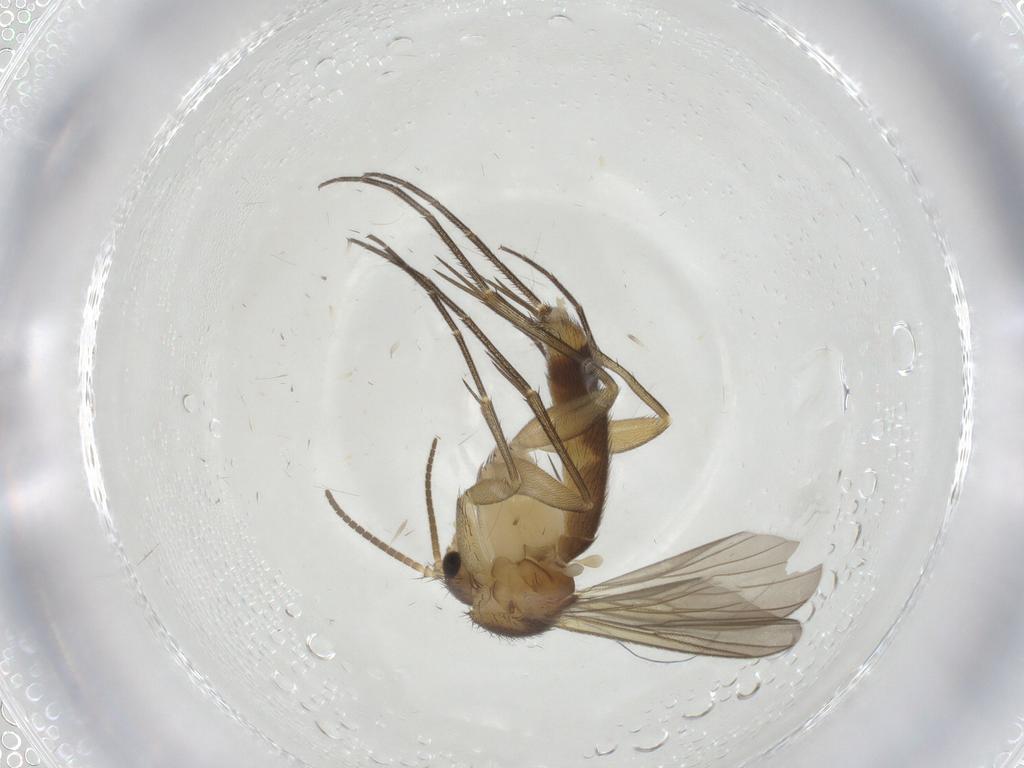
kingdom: Animalia
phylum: Arthropoda
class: Insecta
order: Diptera
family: Mycetophilidae
